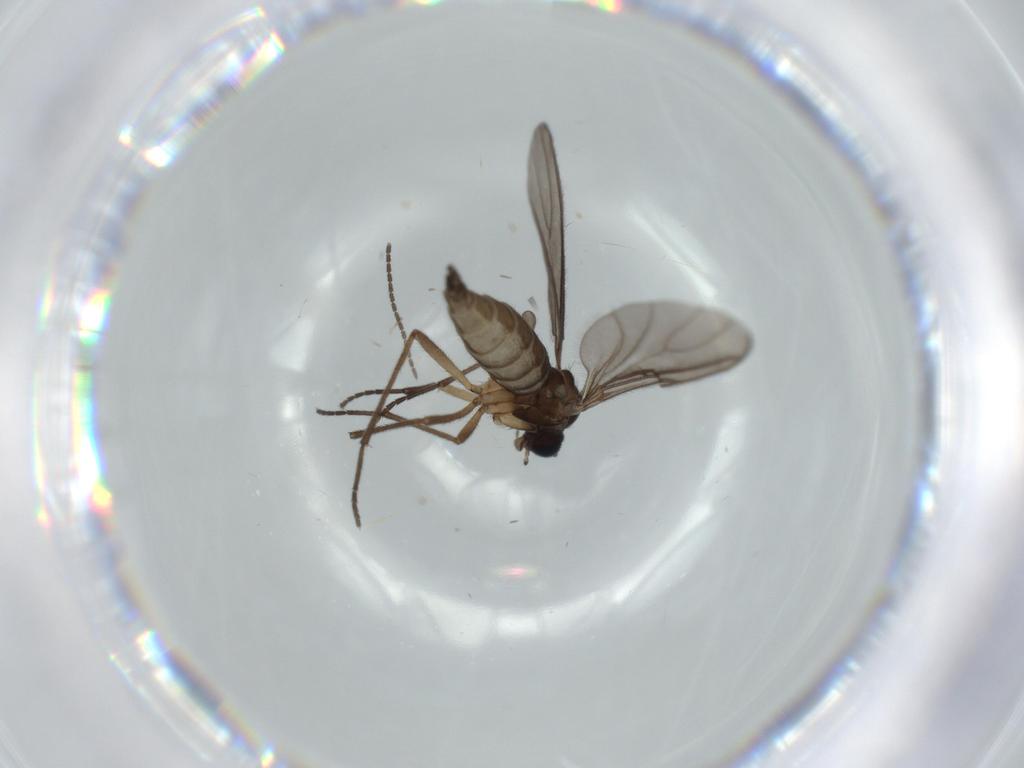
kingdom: Animalia
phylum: Arthropoda
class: Insecta
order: Diptera
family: Sciaridae
